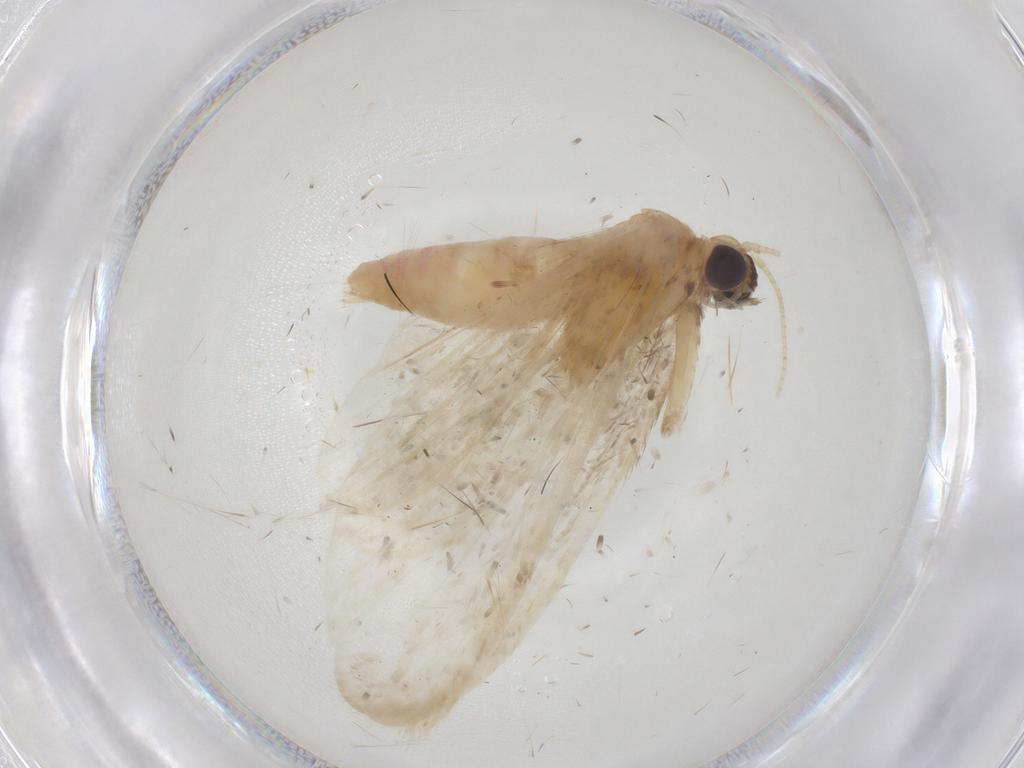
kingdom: Animalia
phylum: Arthropoda
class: Insecta
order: Lepidoptera
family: Geometridae
